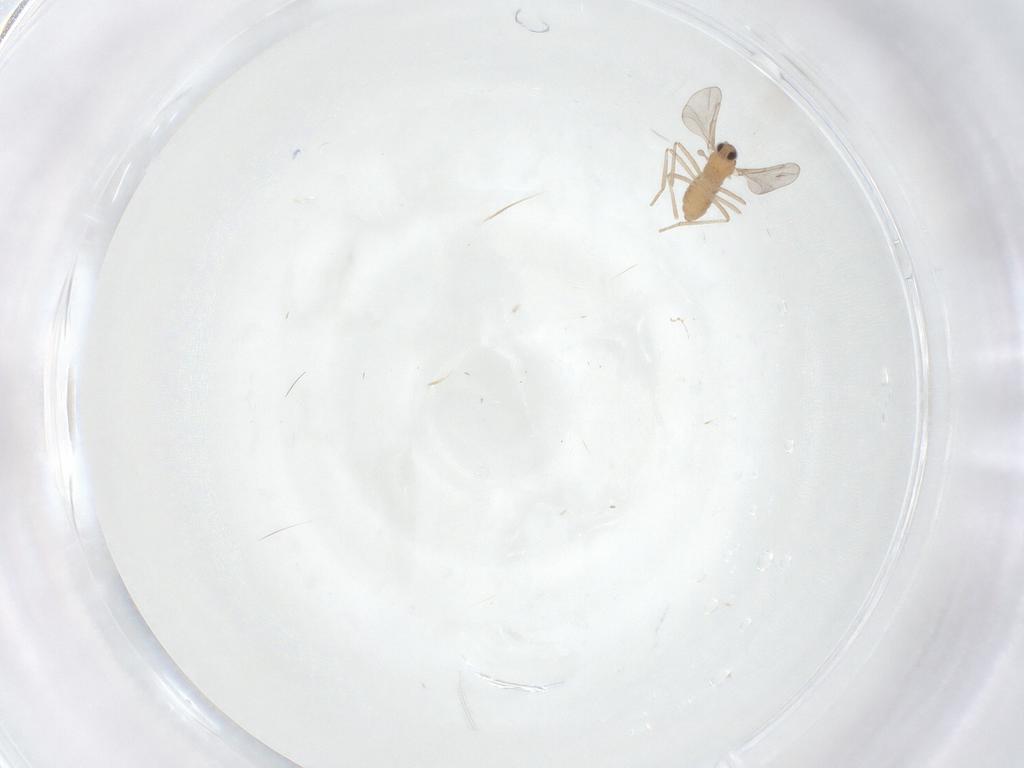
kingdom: Animalia
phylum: Arthropoda
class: Insecta
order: Diptera
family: Cecidomyiidae
